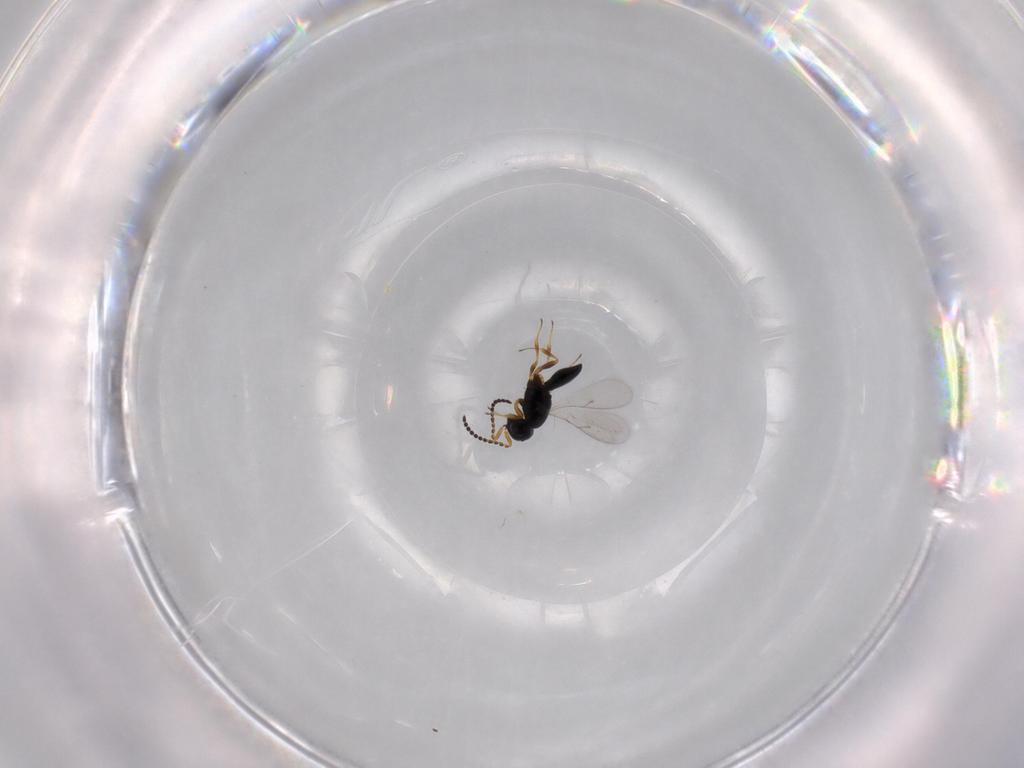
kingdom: Animalia
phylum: Arthropoda
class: Insecta
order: Hymenoptera
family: Scelionidae
